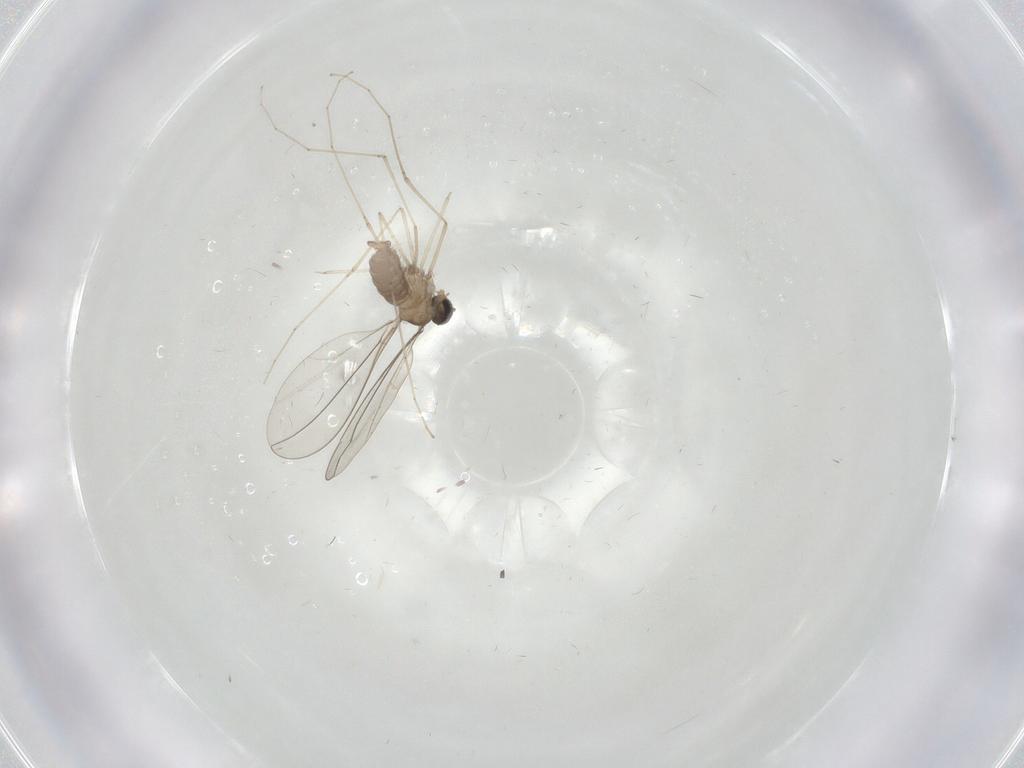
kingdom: Animalia
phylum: Arthropoda
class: Insecta
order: Diptera
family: Cecidomyiidae
